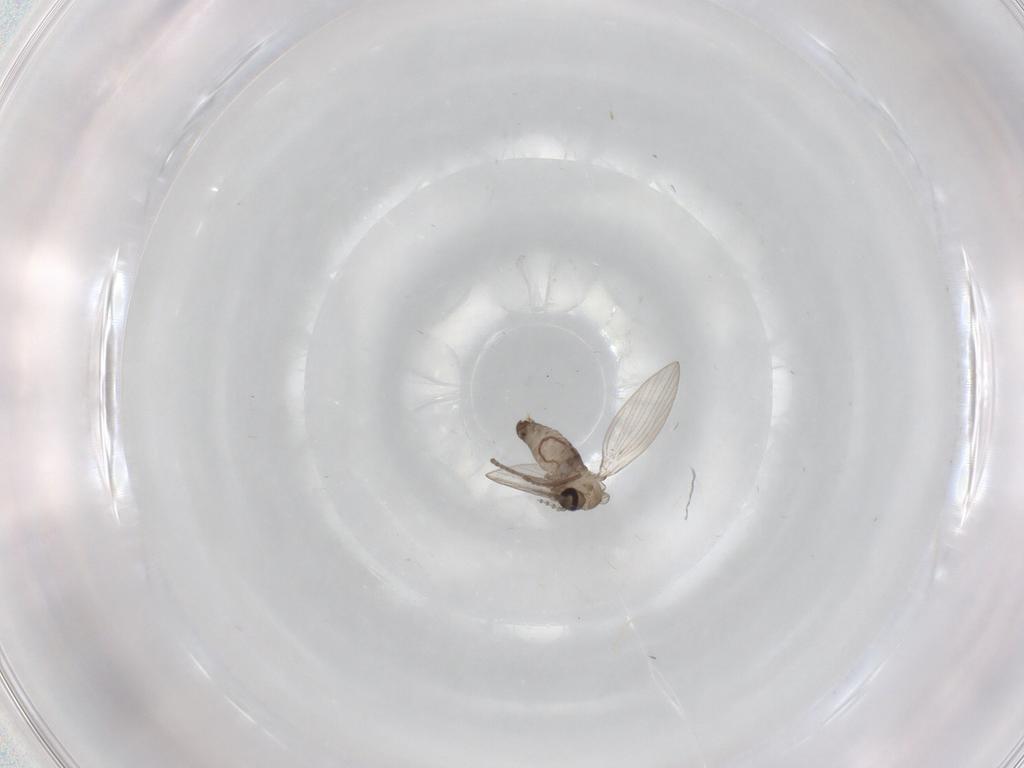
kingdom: Animalia
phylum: Arthropoda
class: Insecta
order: Diptera
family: Psychodidae
